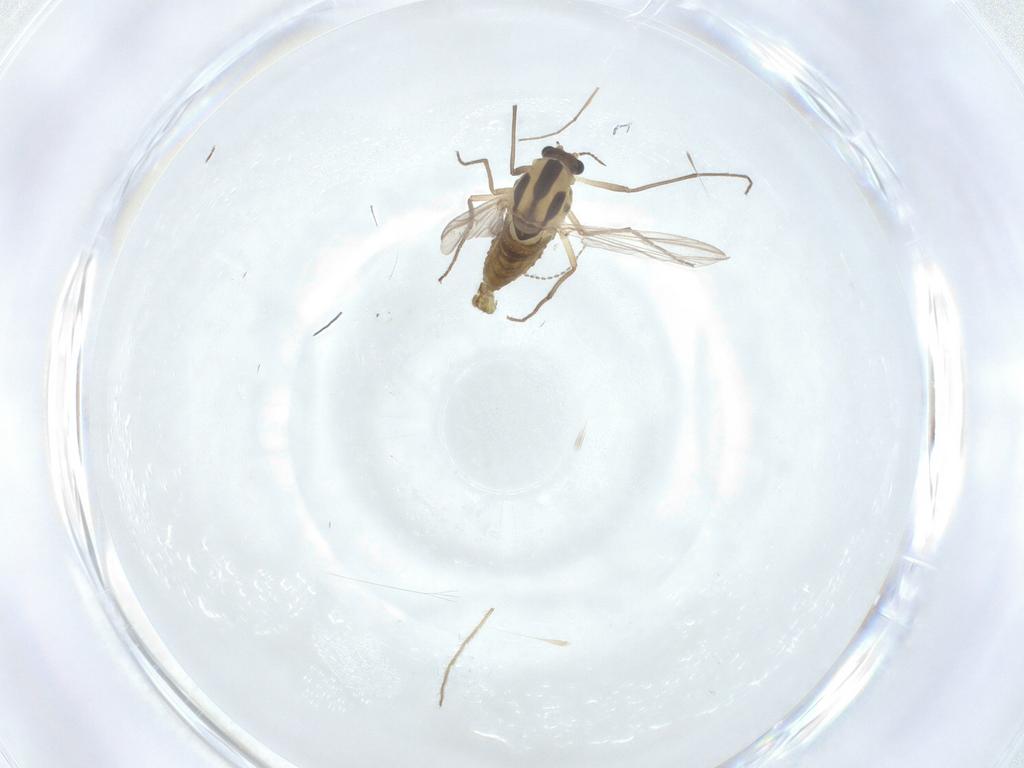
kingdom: Animalia
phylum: Arthropoda
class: Insecta
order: Diptera
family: Chironomidae
